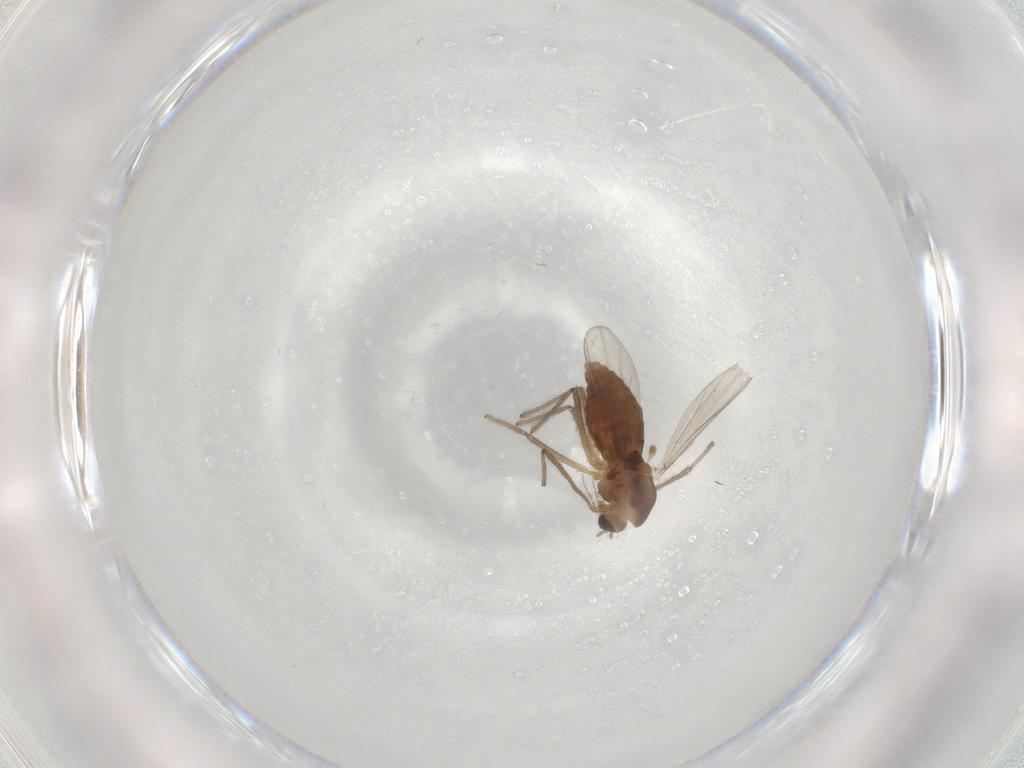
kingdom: Animalia
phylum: Arthropoda
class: Insecta
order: Diptera
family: Chironomidae
